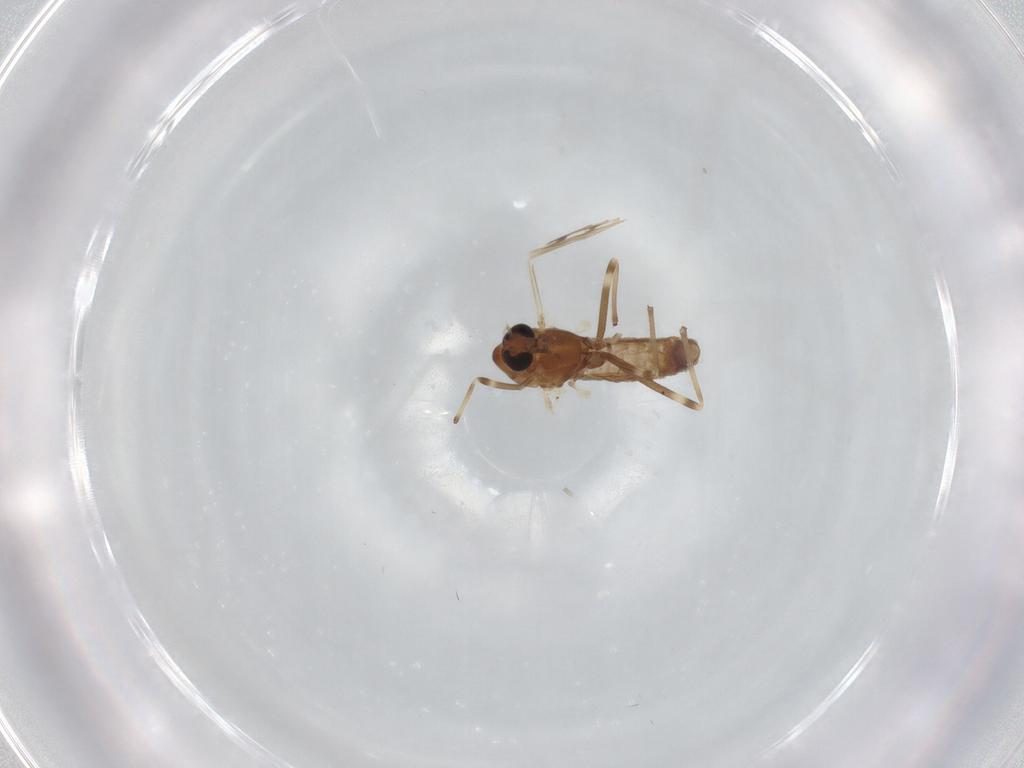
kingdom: Animalia
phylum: Arthropoda
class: Insecta
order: Diptera
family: Chironomidae
